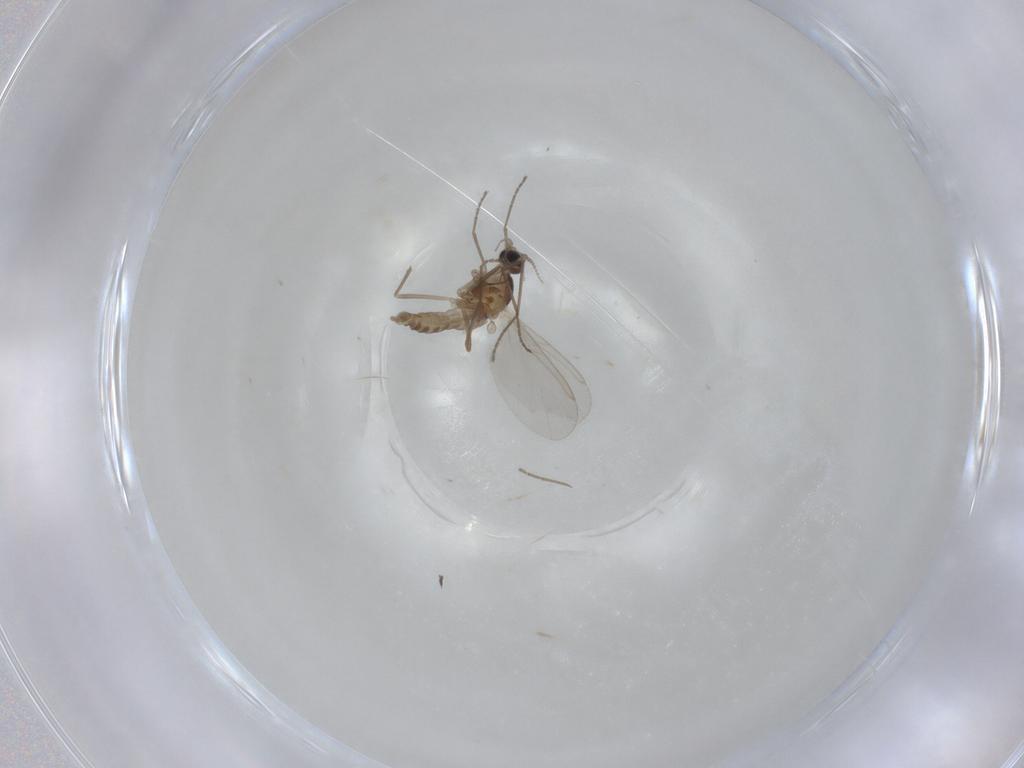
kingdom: Animalia
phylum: Arthropoda
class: Insecta
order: Diptera
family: Cecidomyiidae
